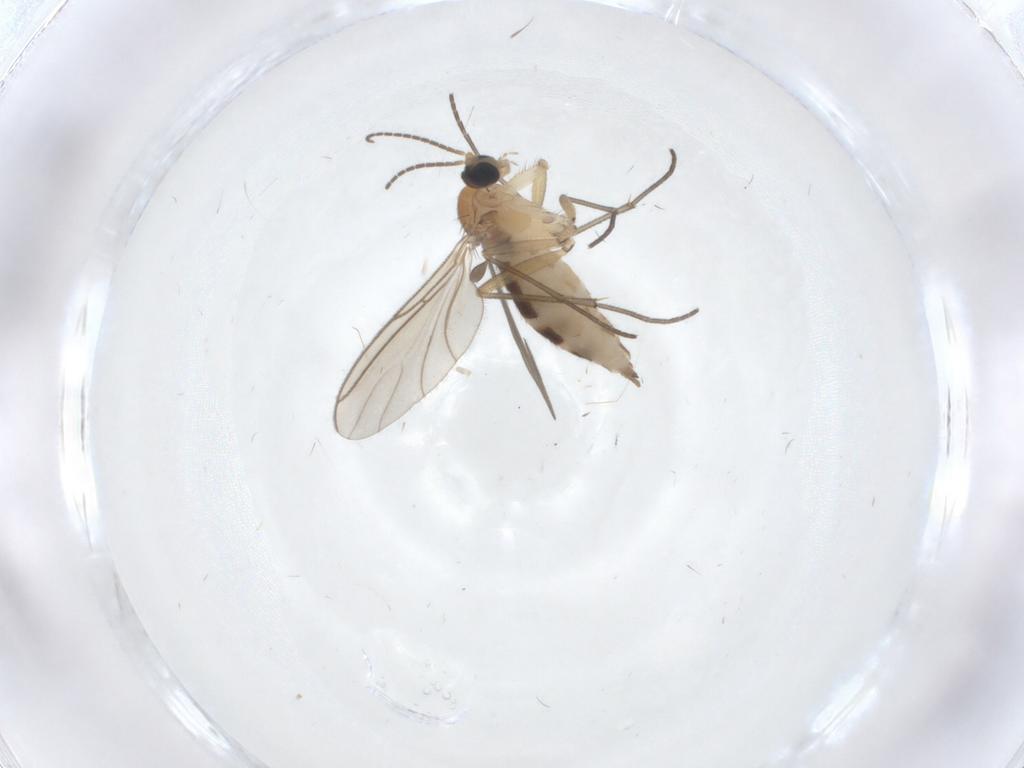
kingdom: Animalia
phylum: Arthropoda
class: Insecta
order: Diptera
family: Sciaridae
